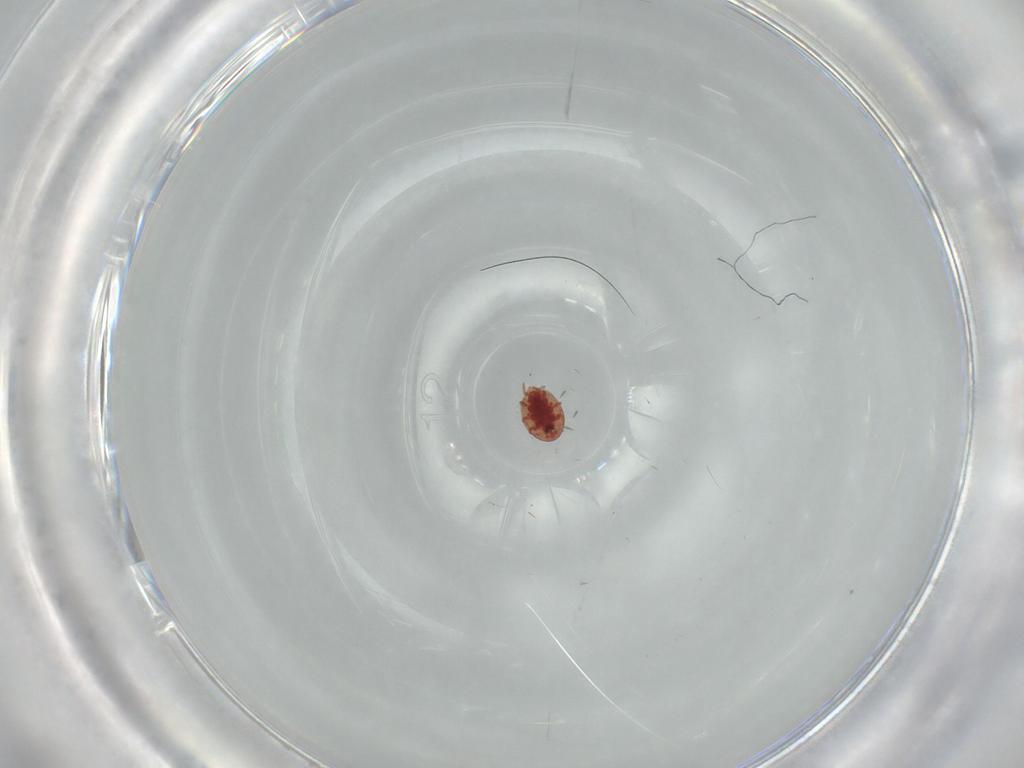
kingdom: Animalia
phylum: Arthropoda
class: Arachnida
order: Mesostigmata
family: Uropodidae
